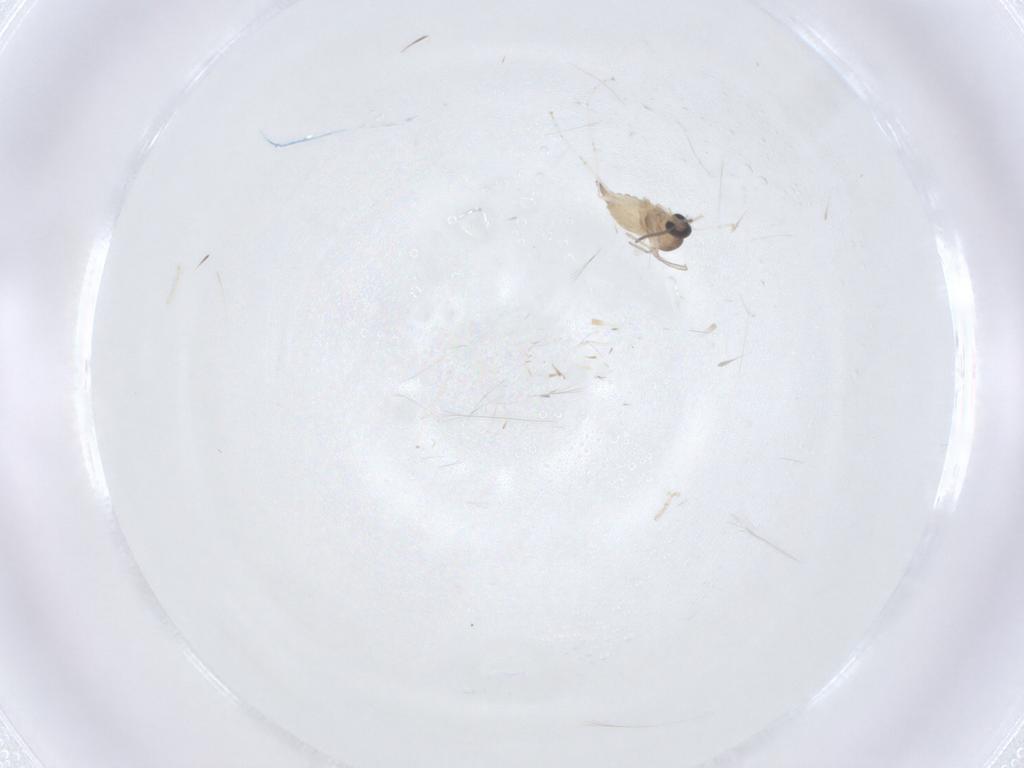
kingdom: Animalia
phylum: Arthropoda
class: Insecta
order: Diptera
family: Cecidomyiidae
